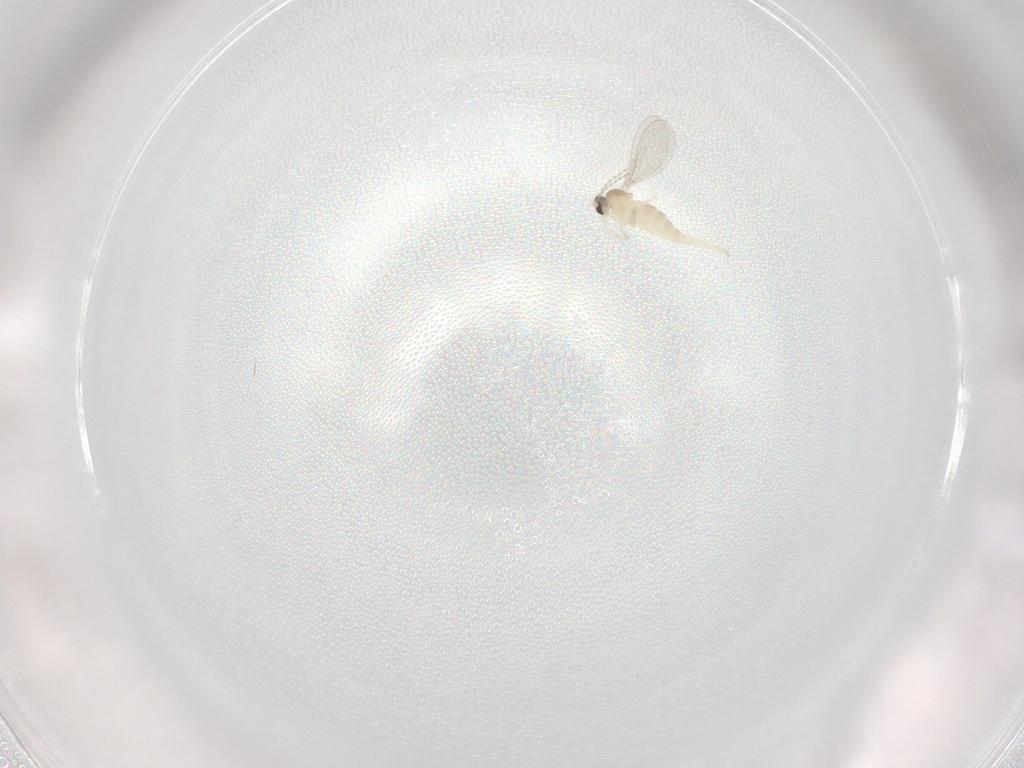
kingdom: Animalia
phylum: Arthropoda
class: Insecta
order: Diptera
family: Cecidomyiidae
